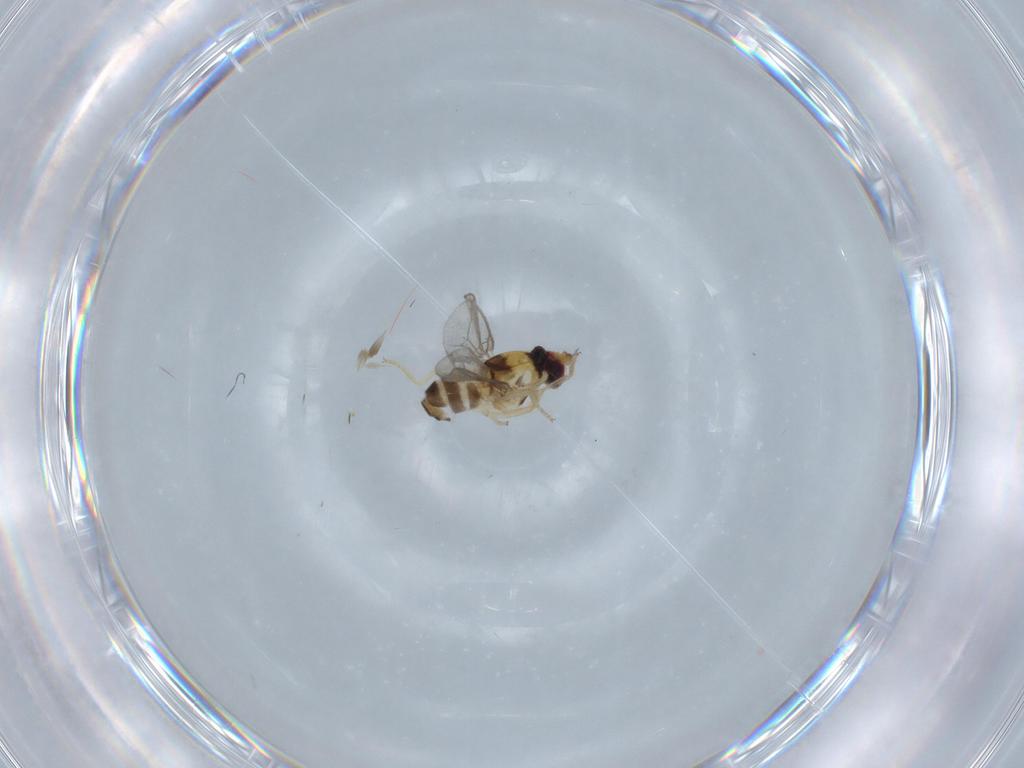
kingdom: Animalia
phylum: Arthropoda
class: Insecta
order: Diptera
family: Chloropidae
